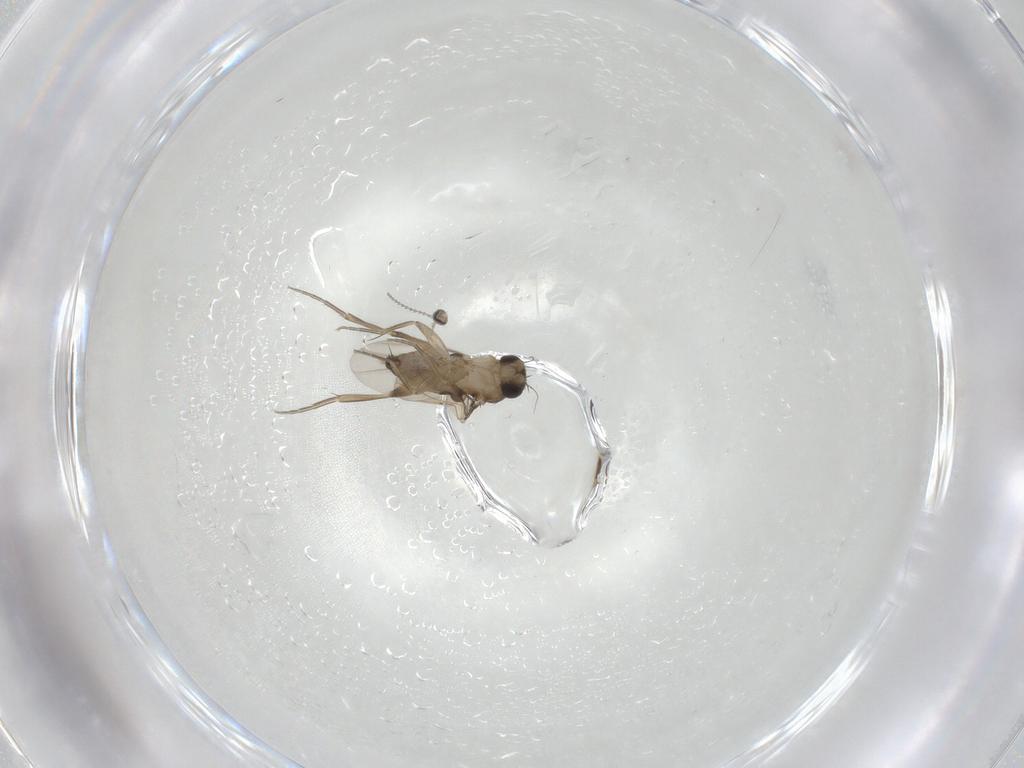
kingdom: Animalia
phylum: Arthropoda
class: Insecta
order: Diptera
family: Phoridae
